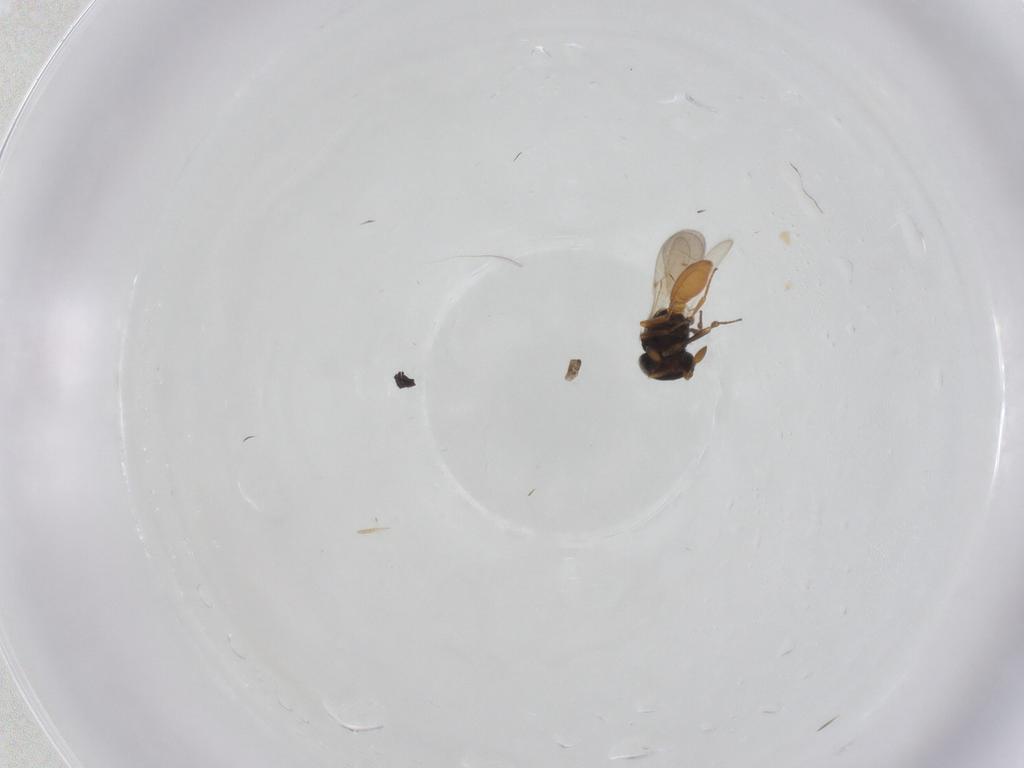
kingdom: Animalia
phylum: Arthropoda
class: Insecta
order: Hymenoptera
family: Scelionidae
